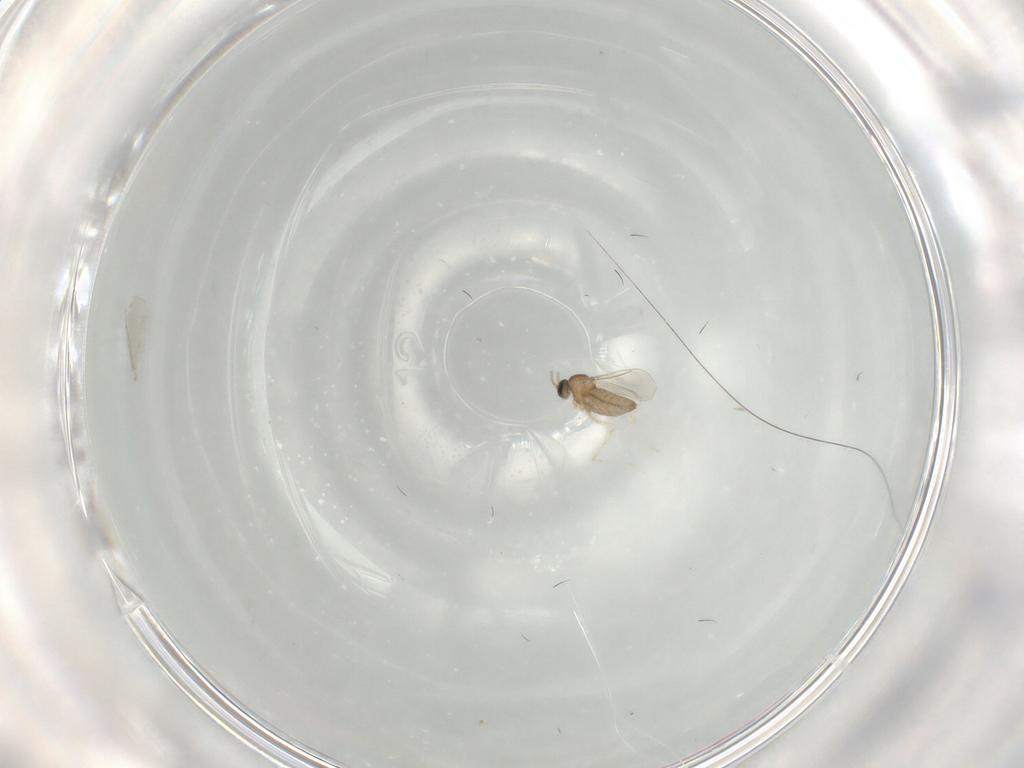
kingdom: Animalia
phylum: Arthropoda
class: Insecta
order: Diptera
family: Cecidomyiidae
